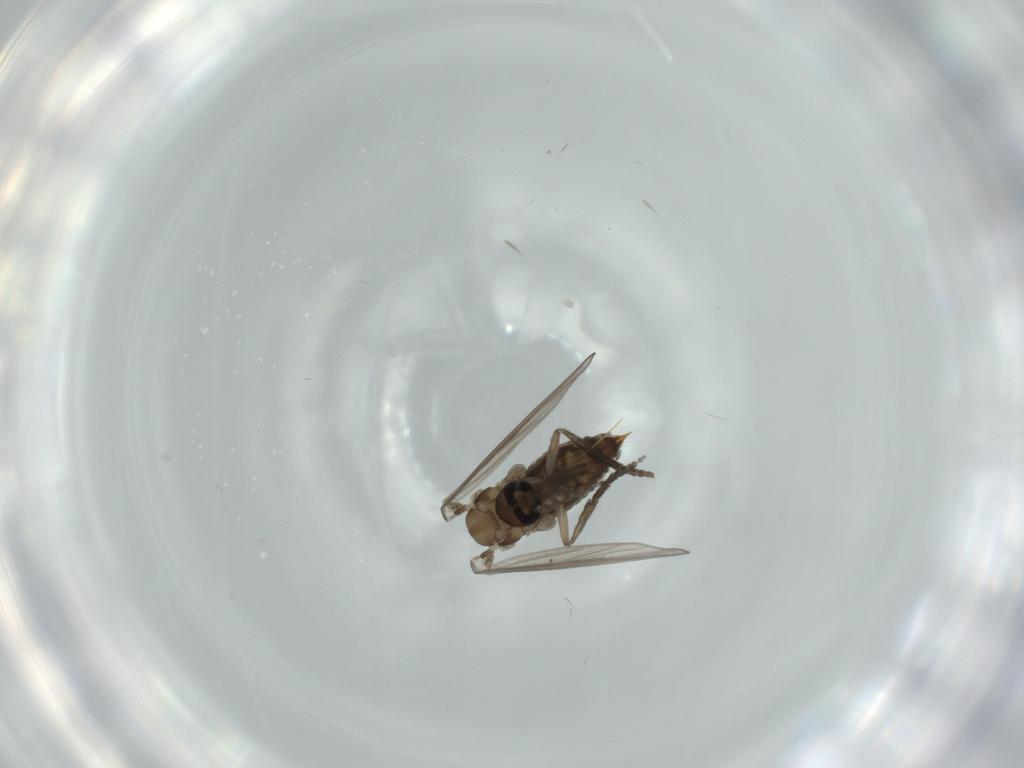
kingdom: Animalia
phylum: Arthropoda
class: Insecta
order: Diptera
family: Psychodidae
